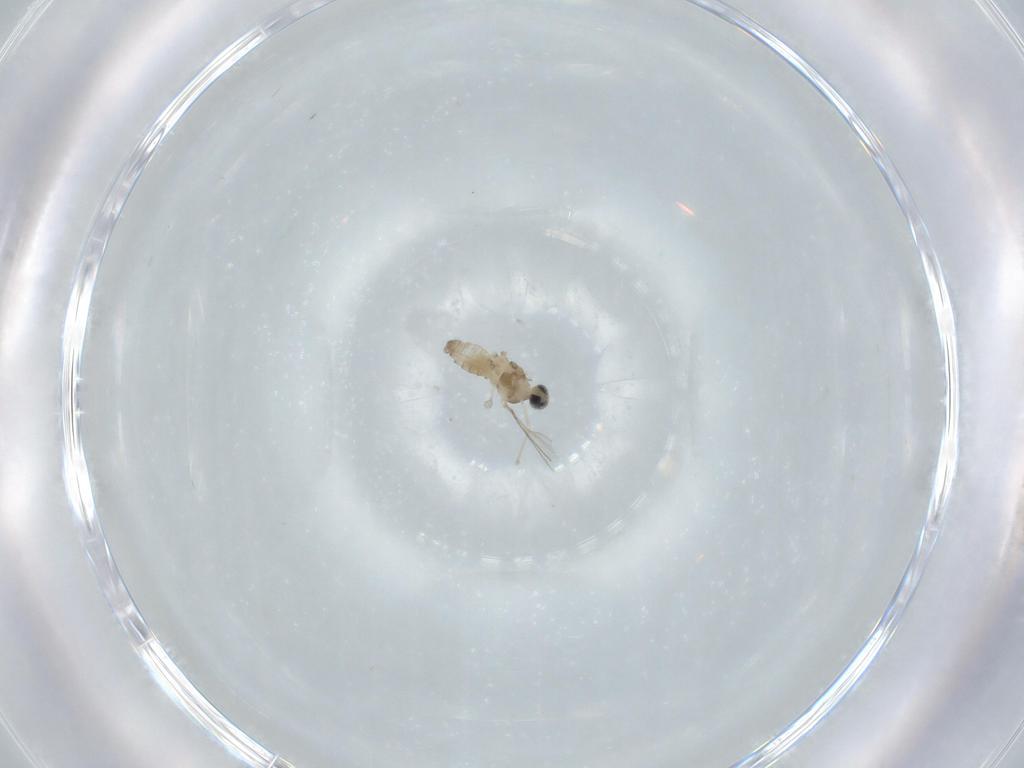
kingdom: Animalia
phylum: Arthropoda
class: Insecta
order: Diptera
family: Cecidomyiidae
